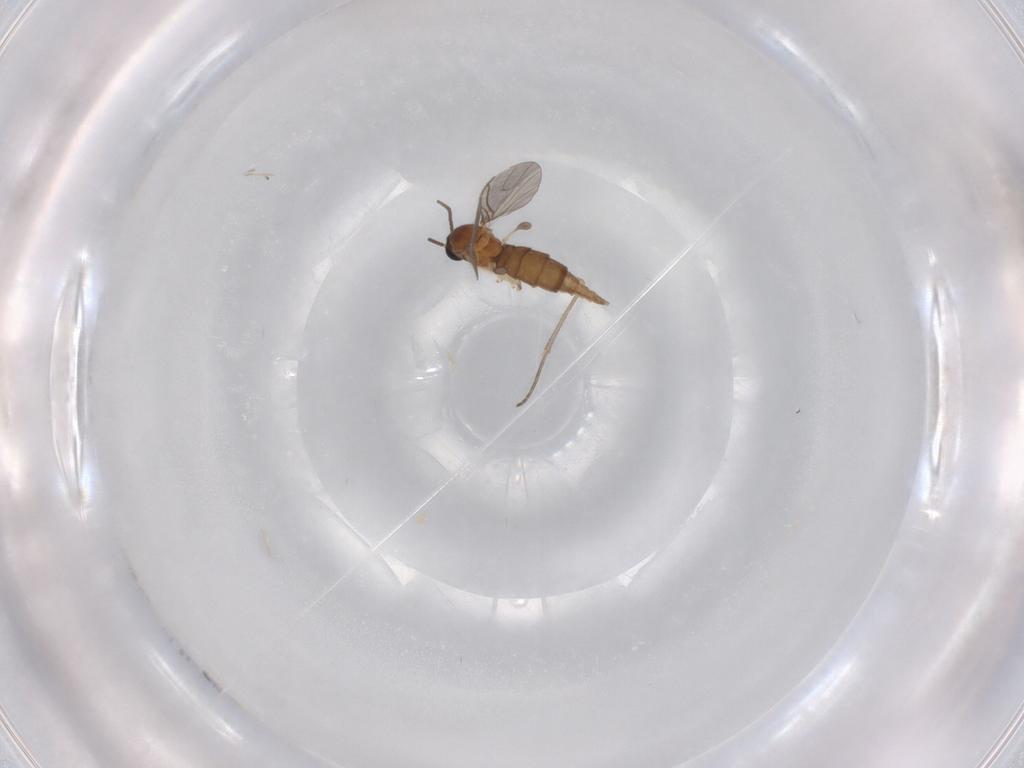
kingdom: Animalia
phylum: Arthropoda
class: Insecta
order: Diptera
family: Sciaridae
